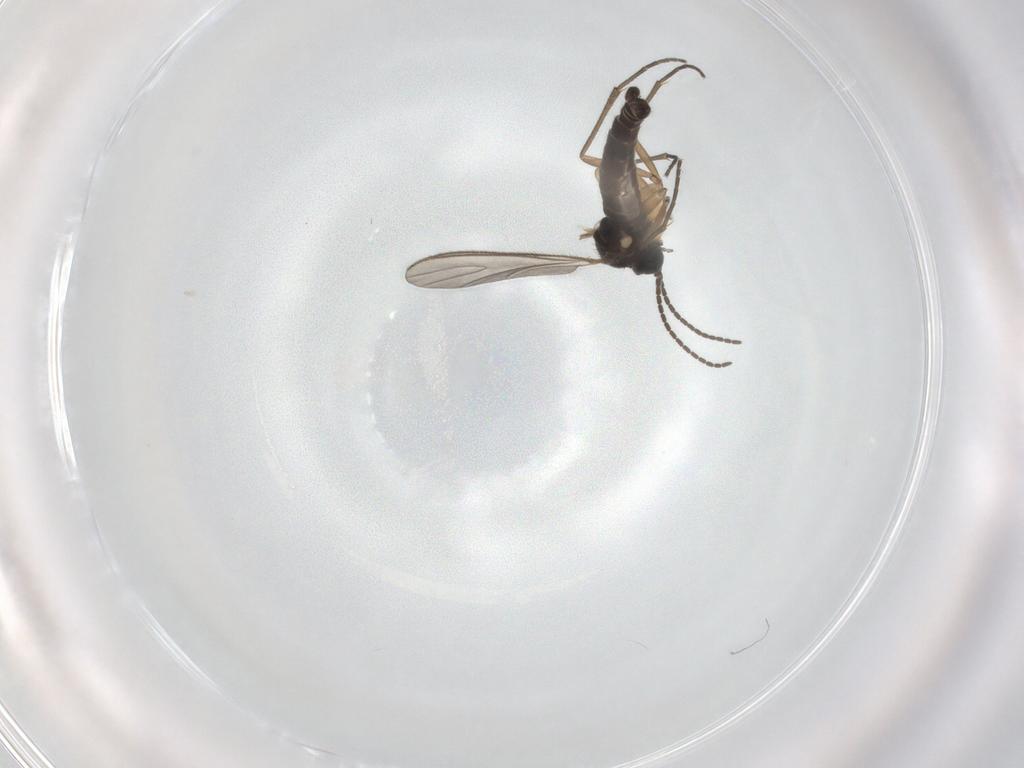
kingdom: Animalia
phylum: Arthropoda
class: Insecta
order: Diptera
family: Sciaridae
